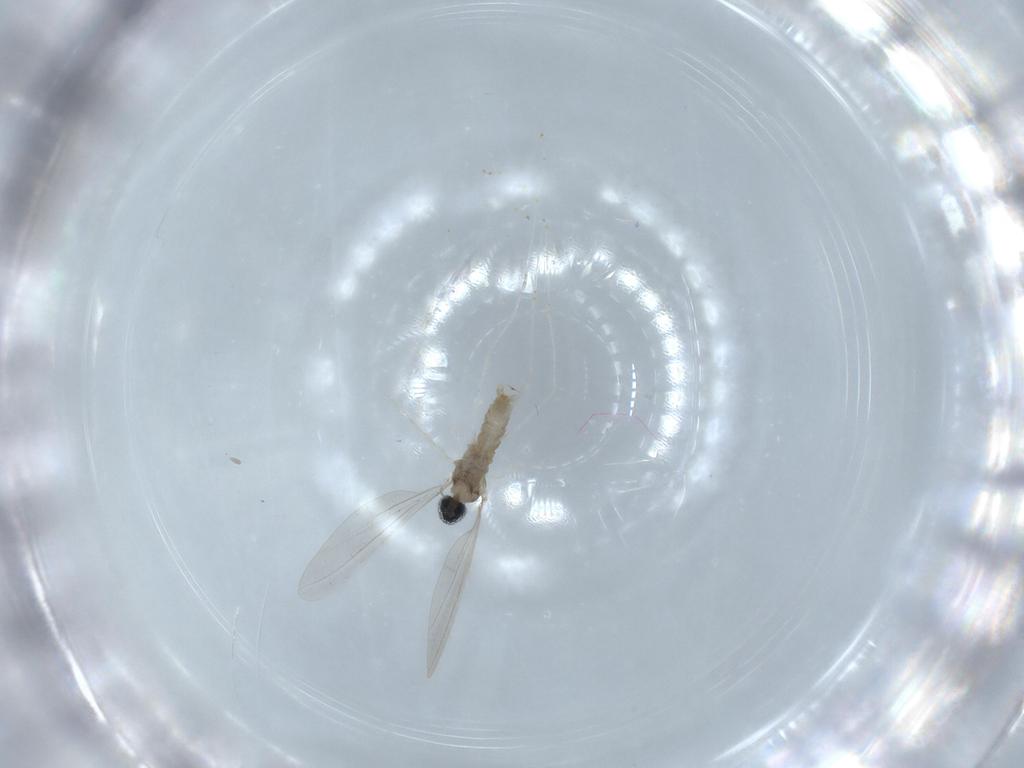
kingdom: Animalia
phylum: Arthropoda
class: Insecta
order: Diptera
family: Cecidomyiidae
